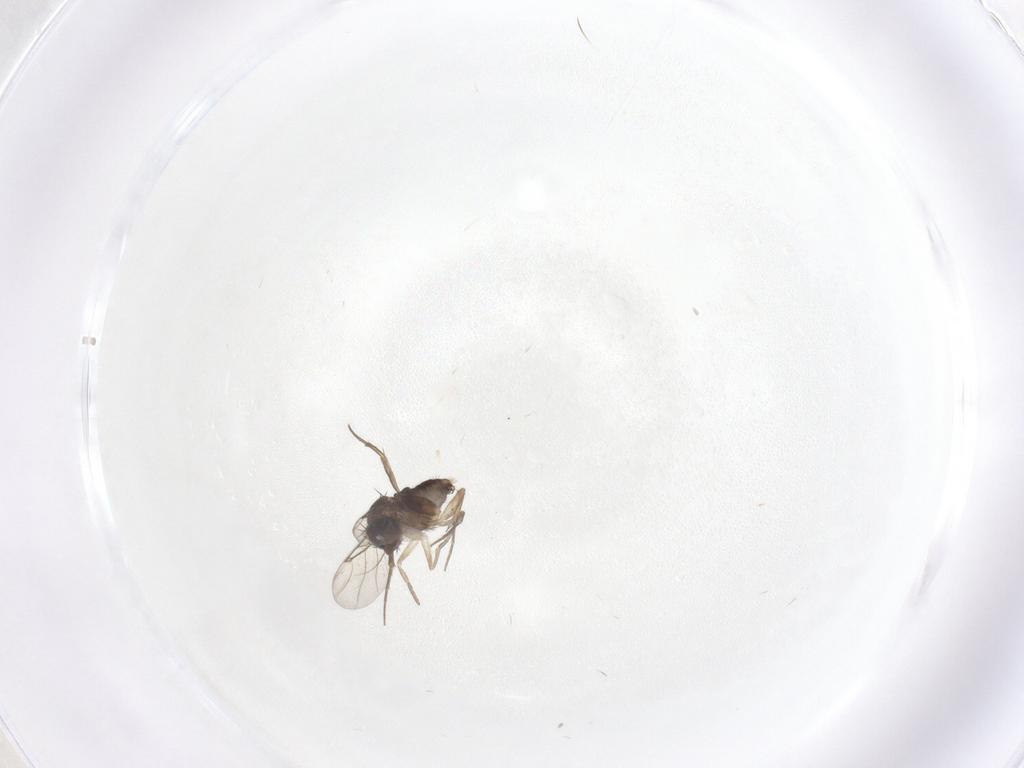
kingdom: Animalia
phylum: Arthropoda
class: Insecta
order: Diptera
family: Phoridae
